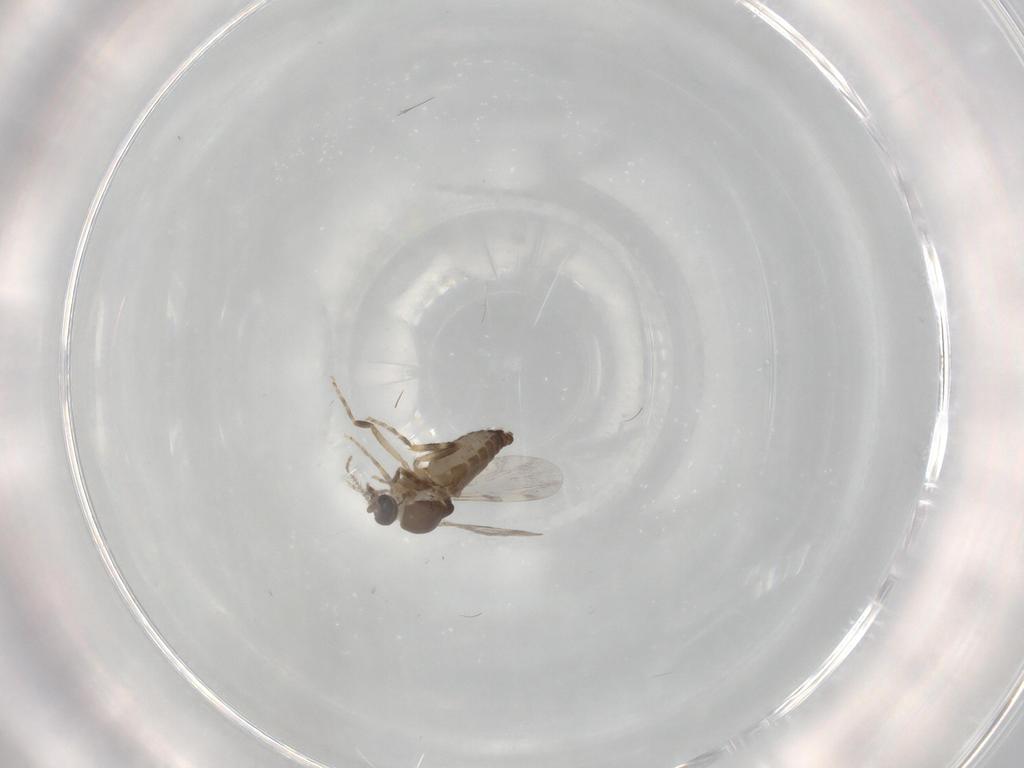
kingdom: Animalia
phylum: Arthropoda
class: Insecta
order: Diptera
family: Ceratopogonidae
